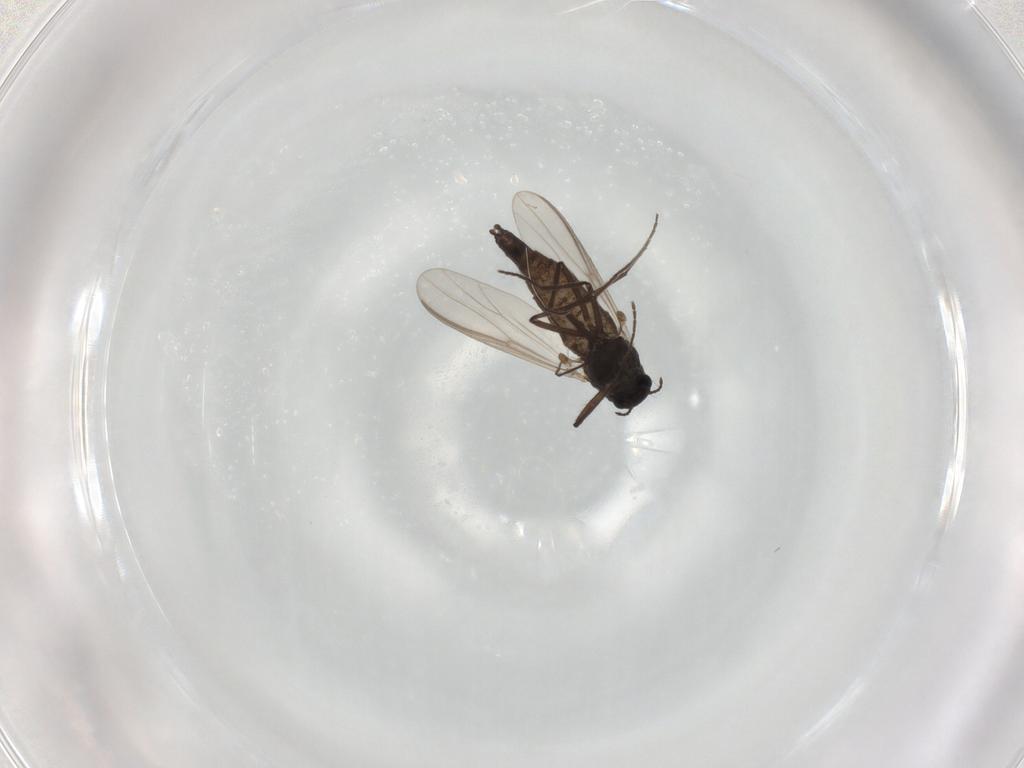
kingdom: Animalia
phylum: Arthropoda
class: Insecta
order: Diptera
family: Chironomidae
